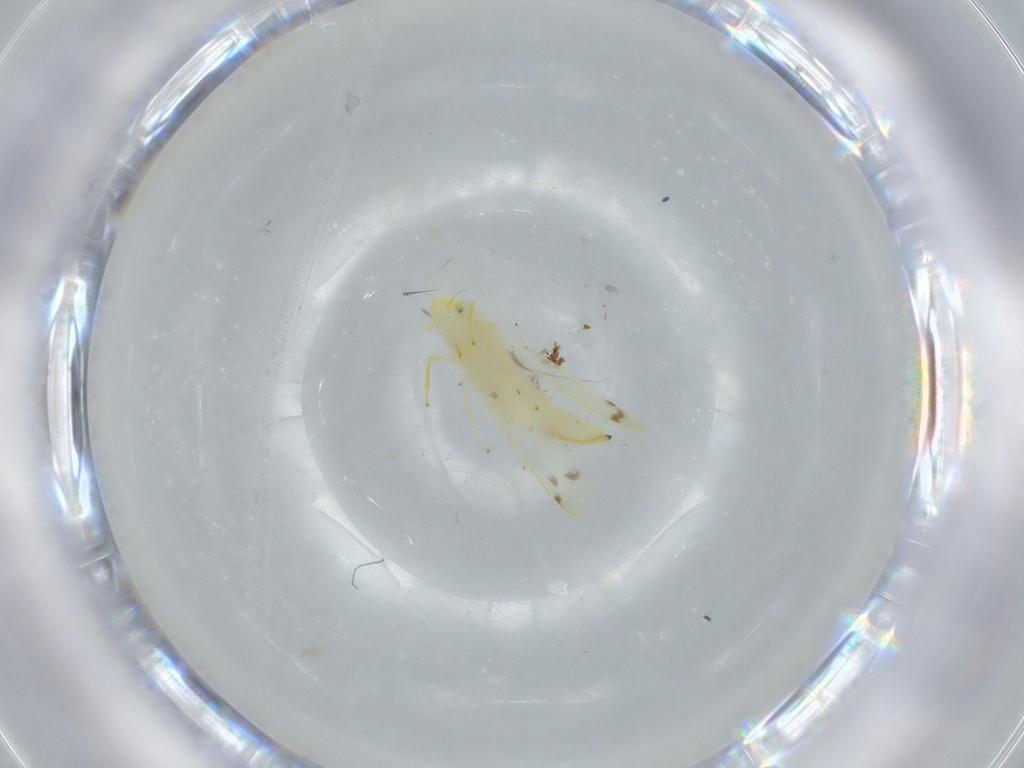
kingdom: Animalia
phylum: Arthropoda
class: Insecta
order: Hemiptera
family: Cicadellidae
